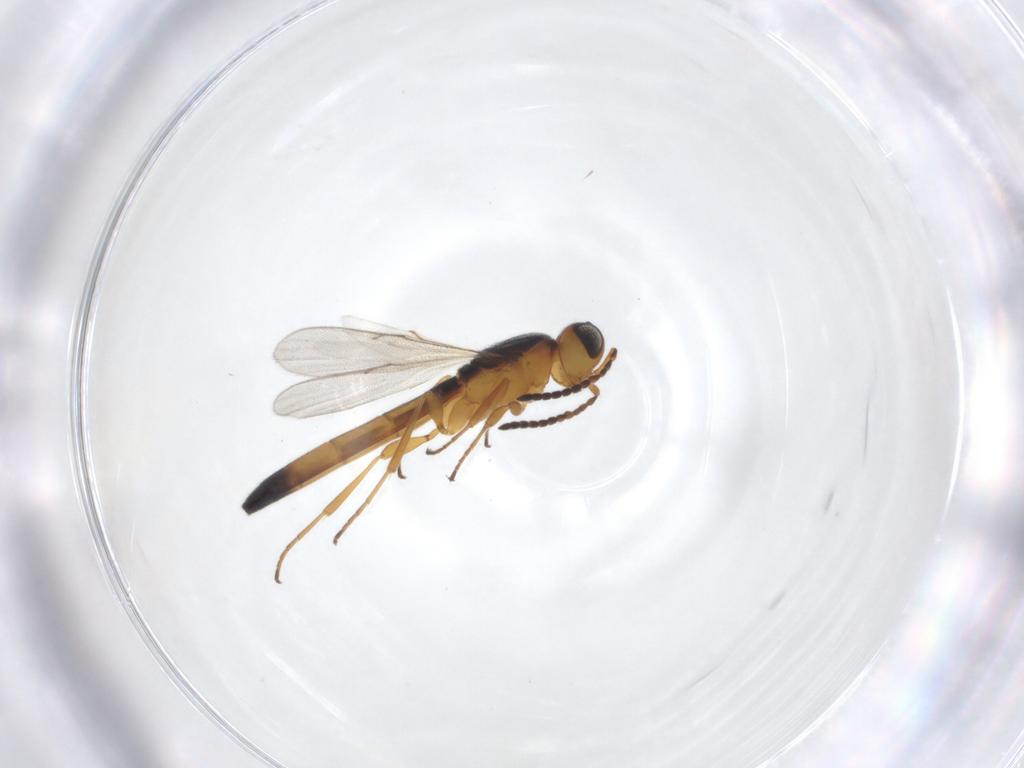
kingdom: Animalia
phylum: Arthropoda
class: Insecta
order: Hymenoptera
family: Scelionidae
